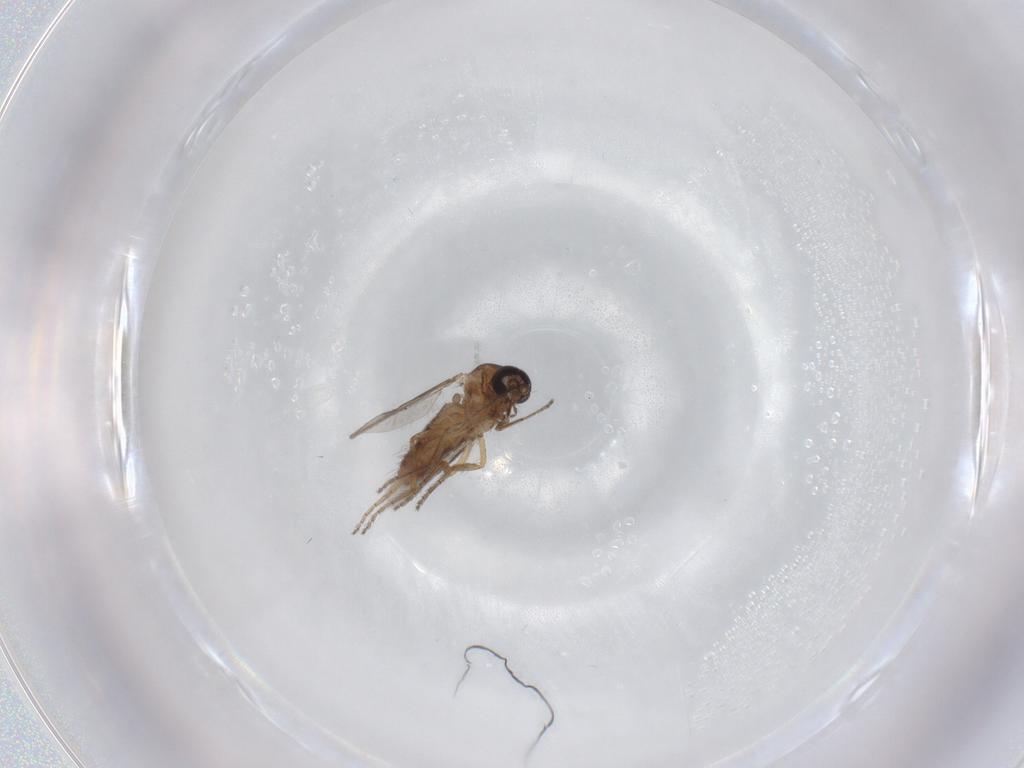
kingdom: Animalia
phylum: Arthropoda
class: Insecta
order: Diptera
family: Ceratopogonidae
